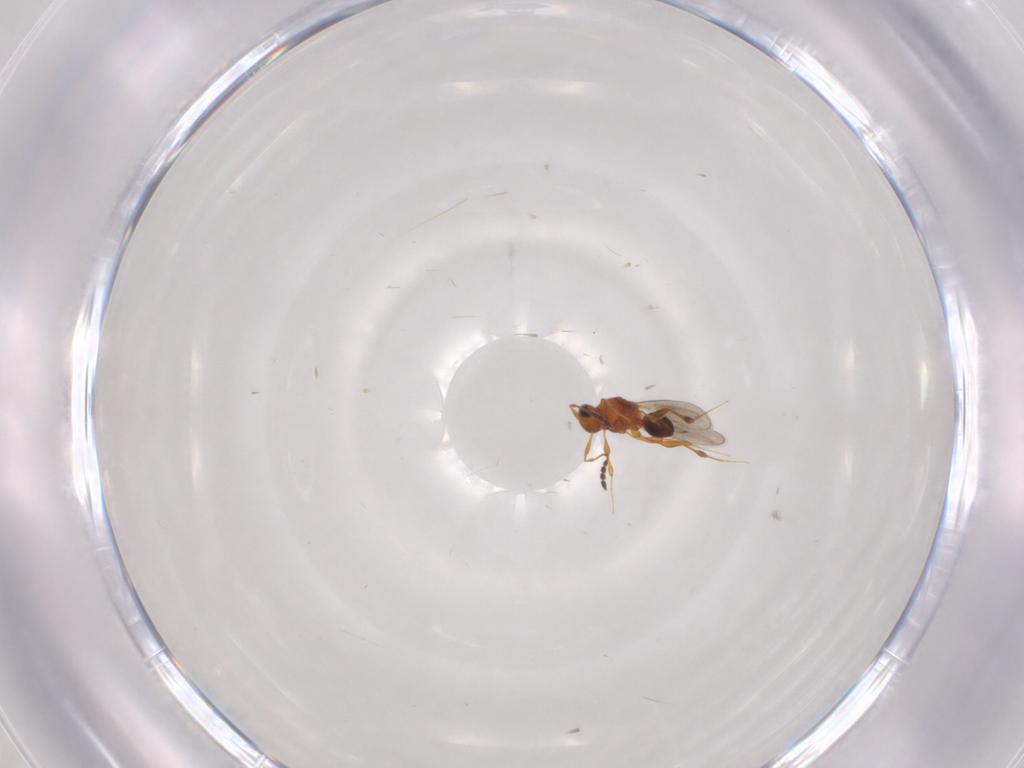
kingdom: Animalia
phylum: Arthropoda
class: Insecta
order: Hymenoptera
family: Platygastridae
